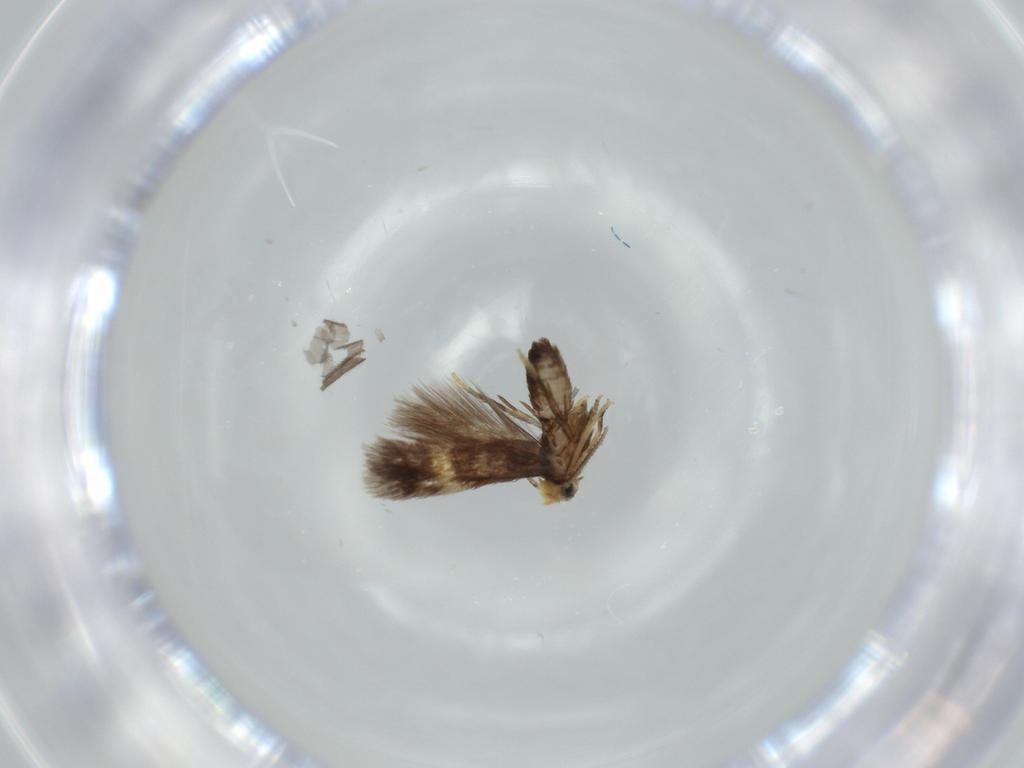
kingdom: Animalia
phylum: Arthropoda
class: Insecta
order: Lepidoptera
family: Nepticulidae
